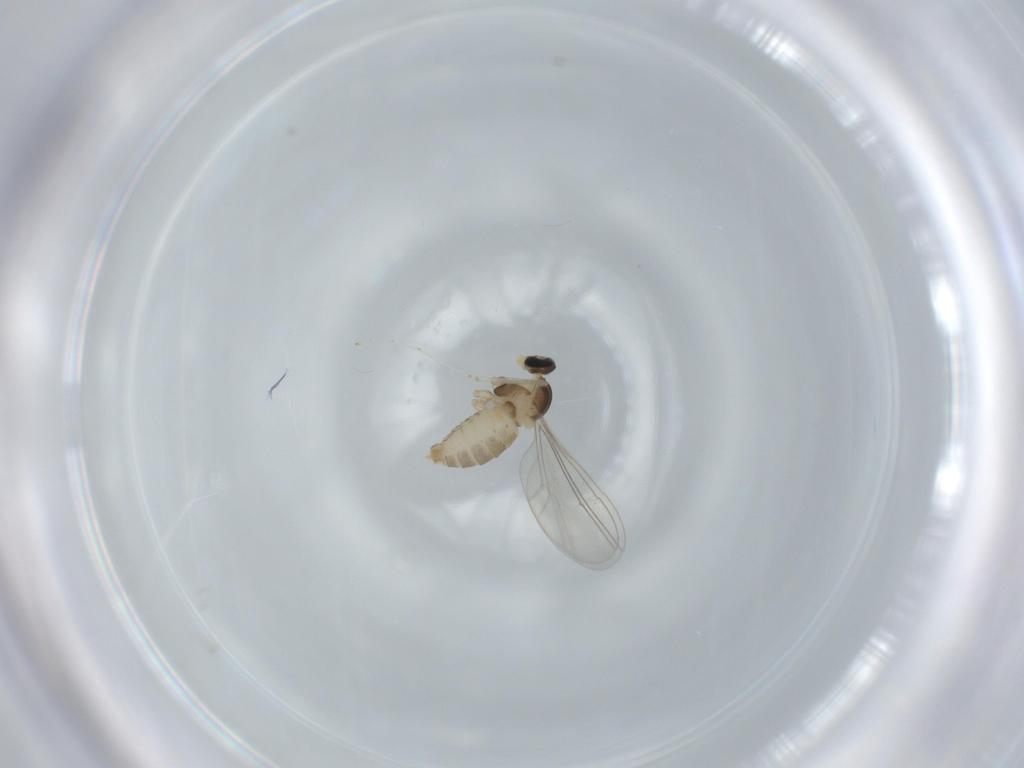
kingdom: Animalia
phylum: Arthropoda
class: Insecta
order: Diptera
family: Cecidomyiidae
